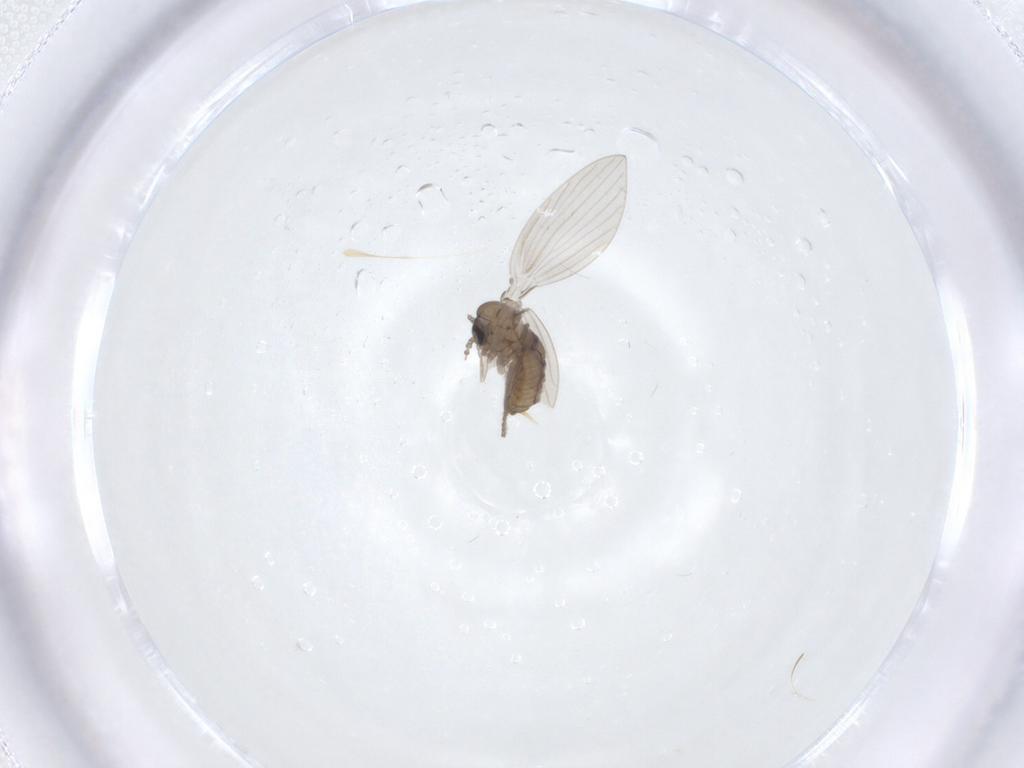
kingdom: Animalia
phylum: Arthropoda
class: Insecta
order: Diptera
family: Psychodidae
